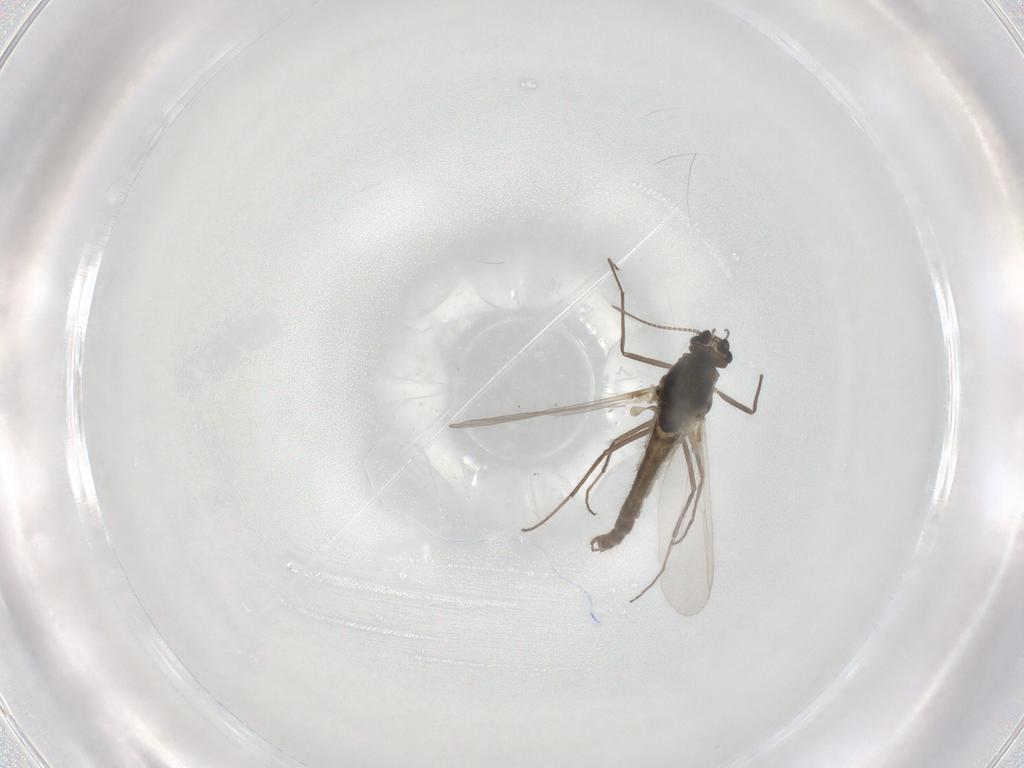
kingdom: Animalia
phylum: Arthropoda
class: Insecta
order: Diptera
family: Chironomidae
